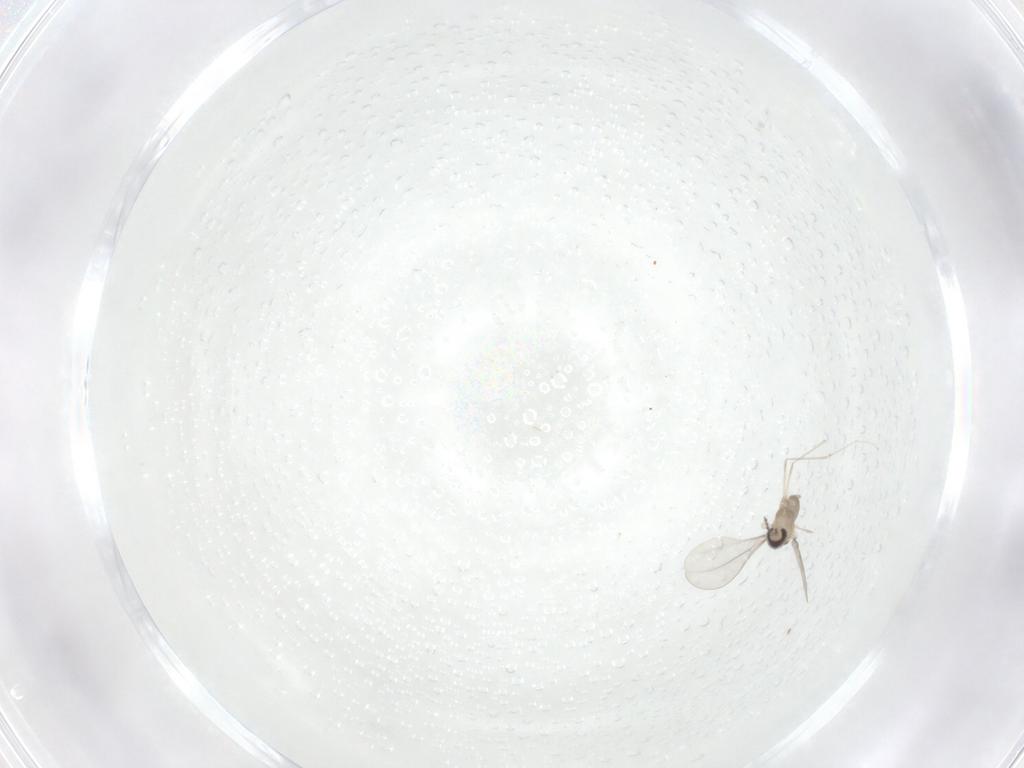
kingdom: Animalia
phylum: Arthropoda
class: Insecta
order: Diptera
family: Cecidomyiidae
